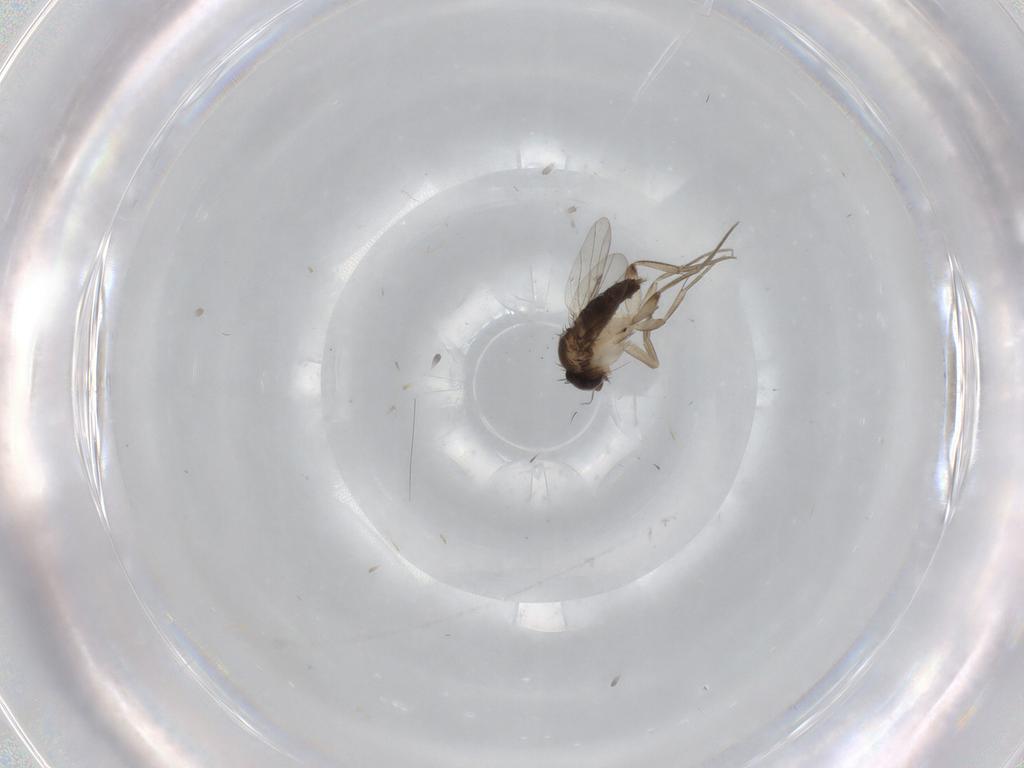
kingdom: Animalia
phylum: Arthropoda
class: Insecta
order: Diptera
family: Phoridae
